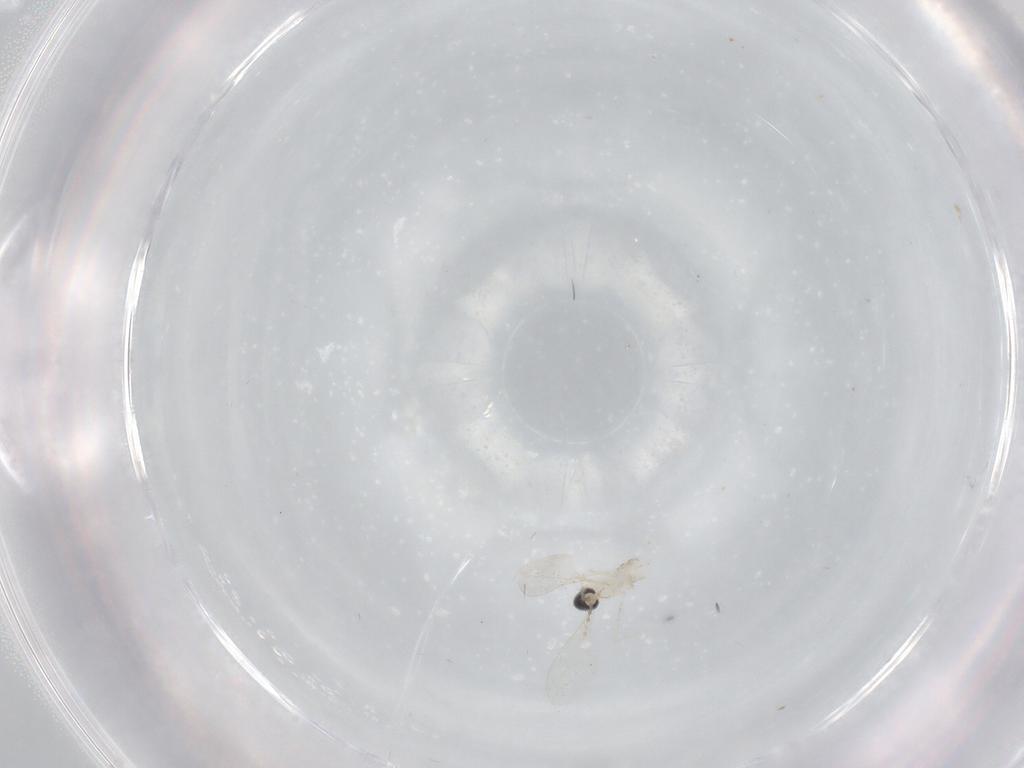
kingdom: Animalia
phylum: Arthropoda
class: Insecta
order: Diptera
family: Cecidomyiidae
